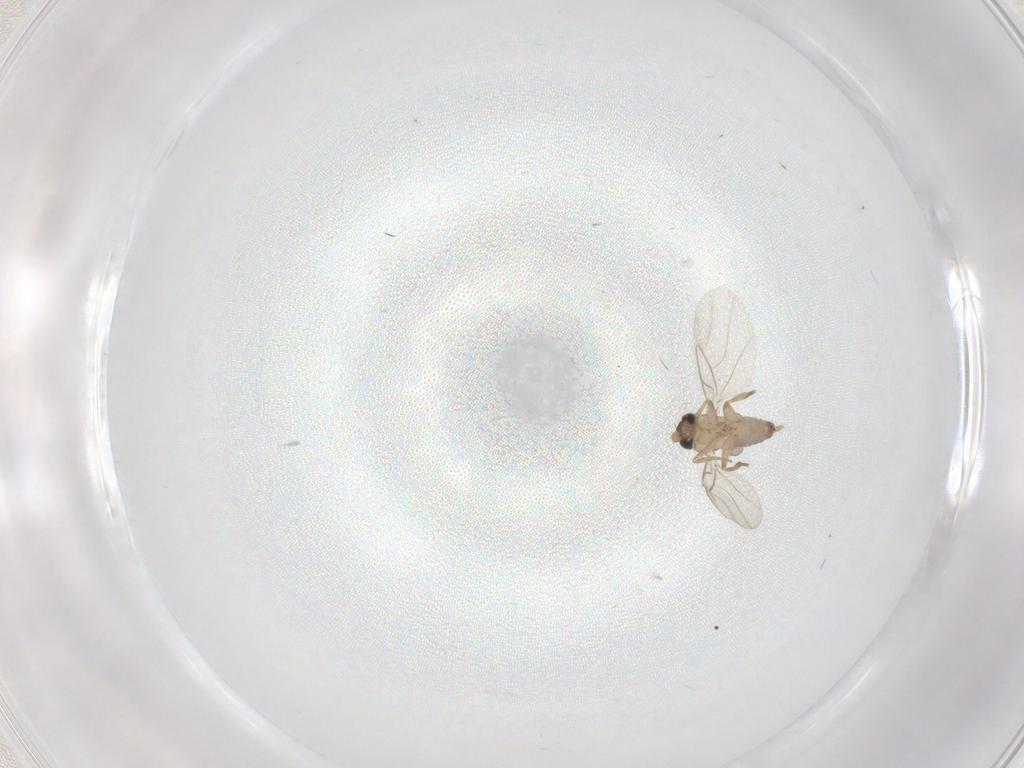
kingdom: Animalia
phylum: Arthropoda
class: Insecta
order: Diptera
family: Phoridae
